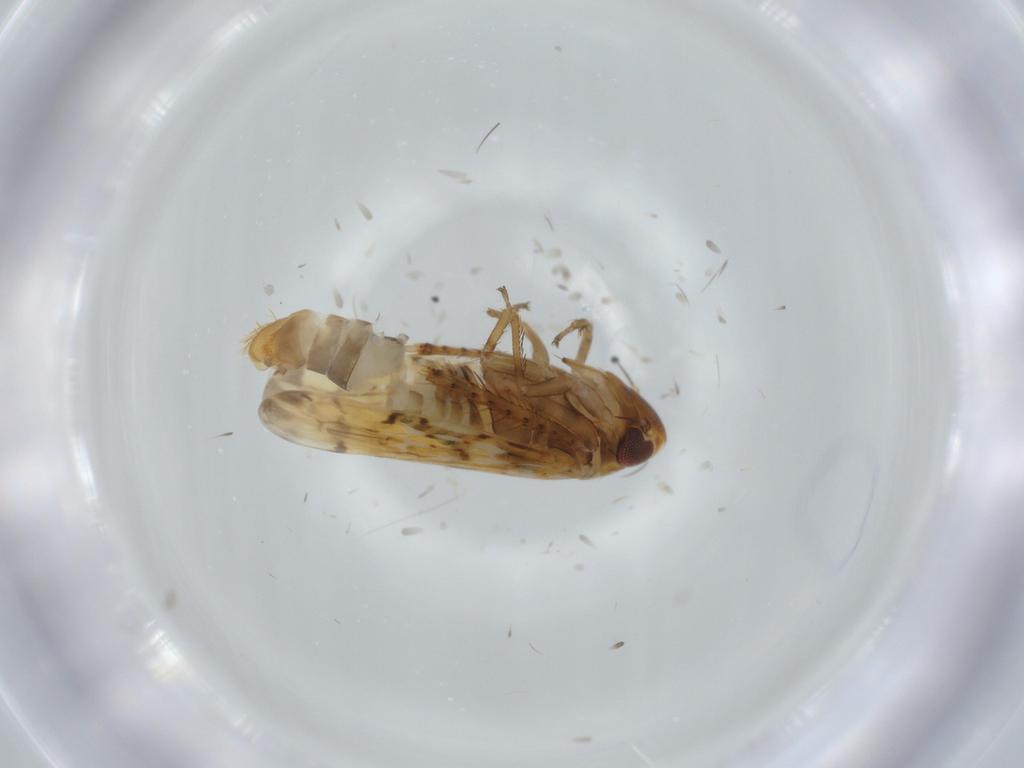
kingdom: Animalia
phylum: Arthropoda
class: Insecta
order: Hemiptera
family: Cicadellidae
